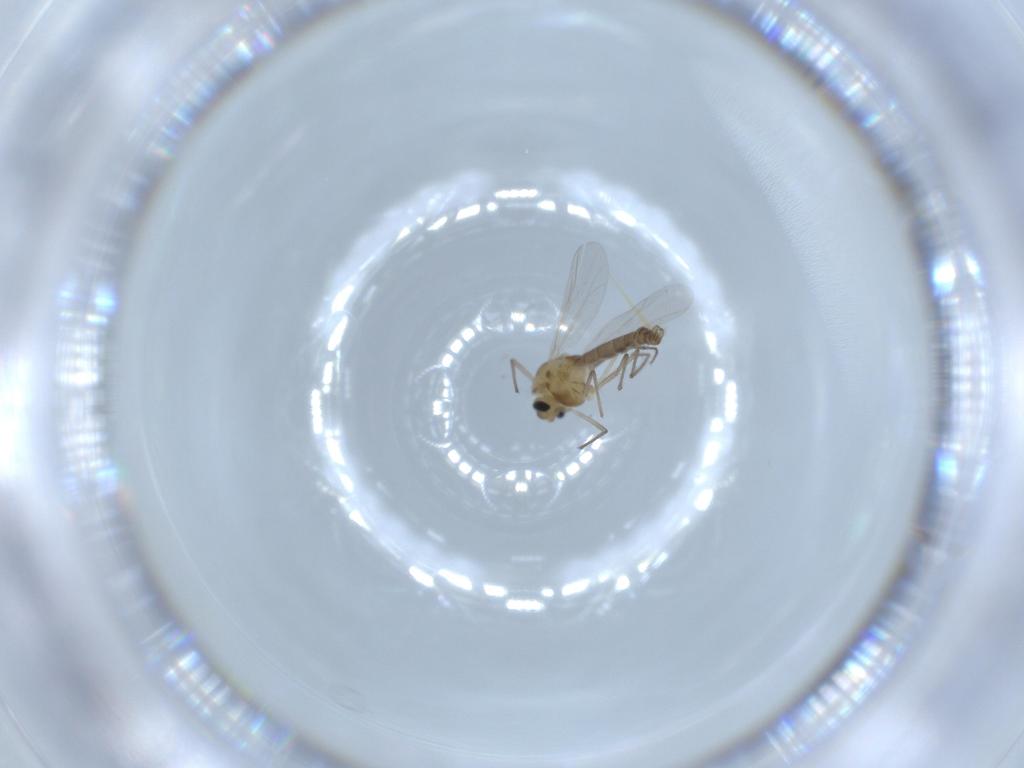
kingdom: Animalia
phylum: Arthropoda
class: Insecta
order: Diptera
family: Chironomidae
